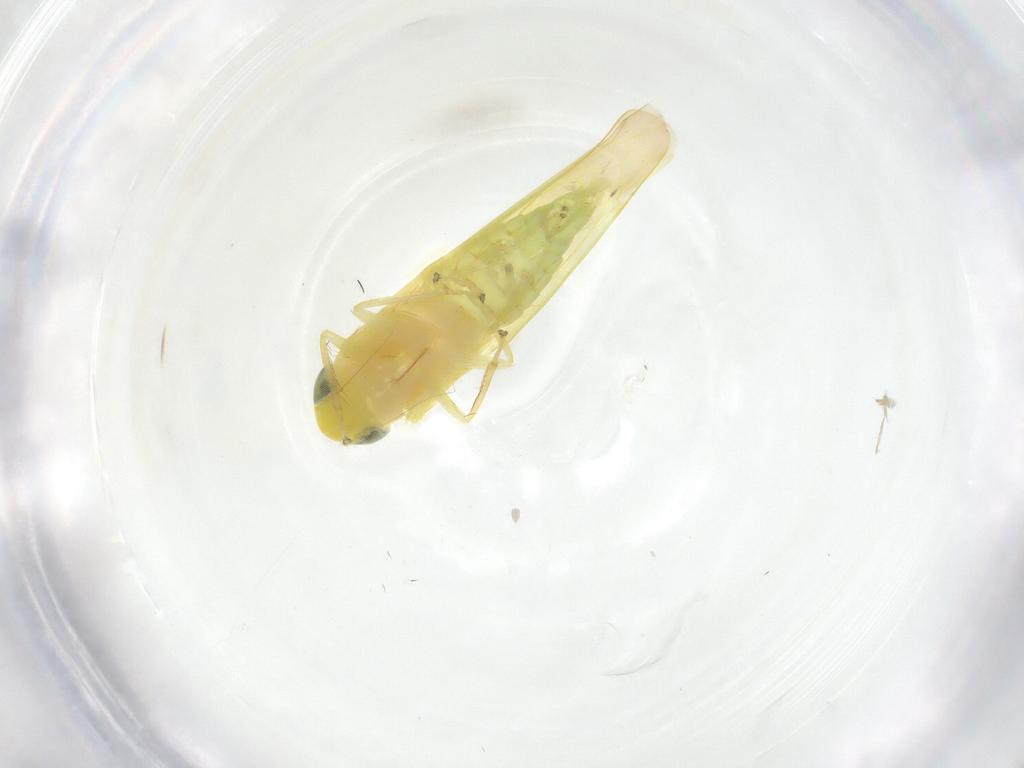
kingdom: Animalia
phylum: Arthropoda
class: Insecta
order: Hemiptera
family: Cicadellidae
